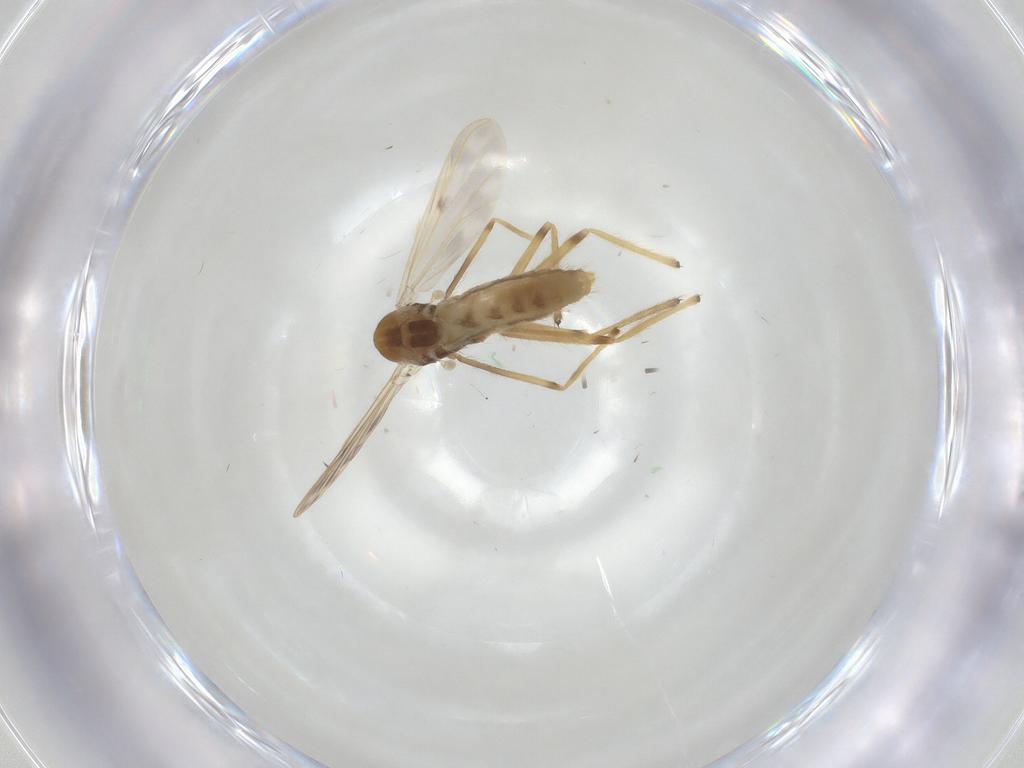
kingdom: Animalia
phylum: Arthropoda
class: Insecta
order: Diptera
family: Chironomidae
